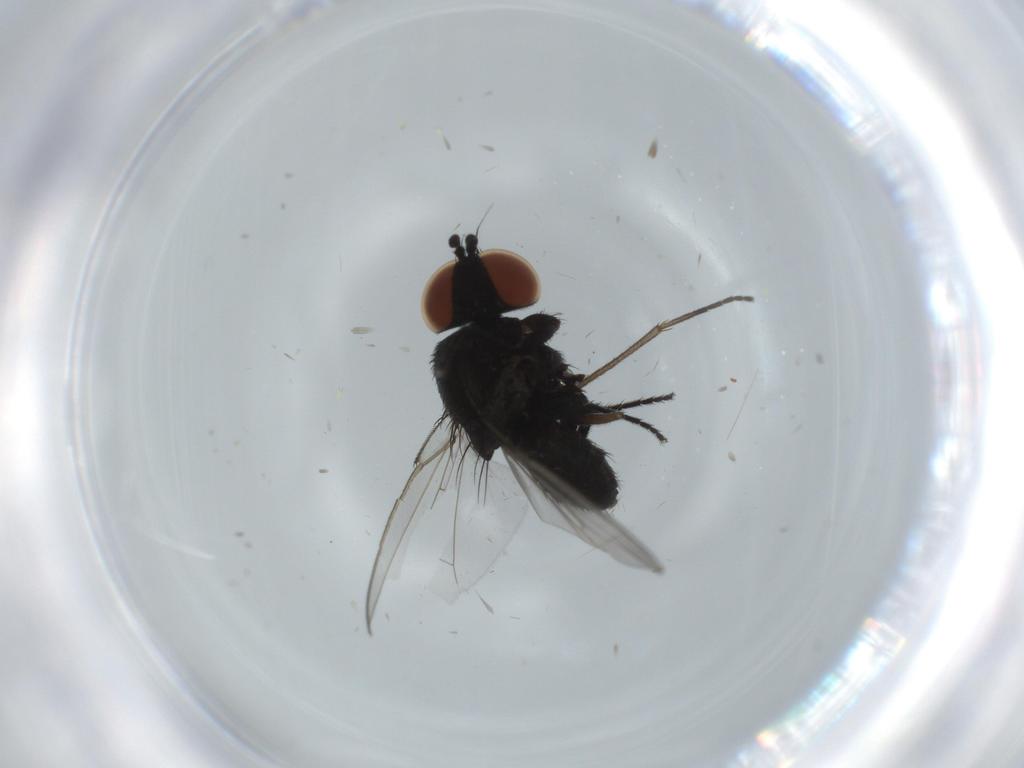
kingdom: Animalia
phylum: Arthropoda
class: Insecta
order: Diptera
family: Milichiidae
